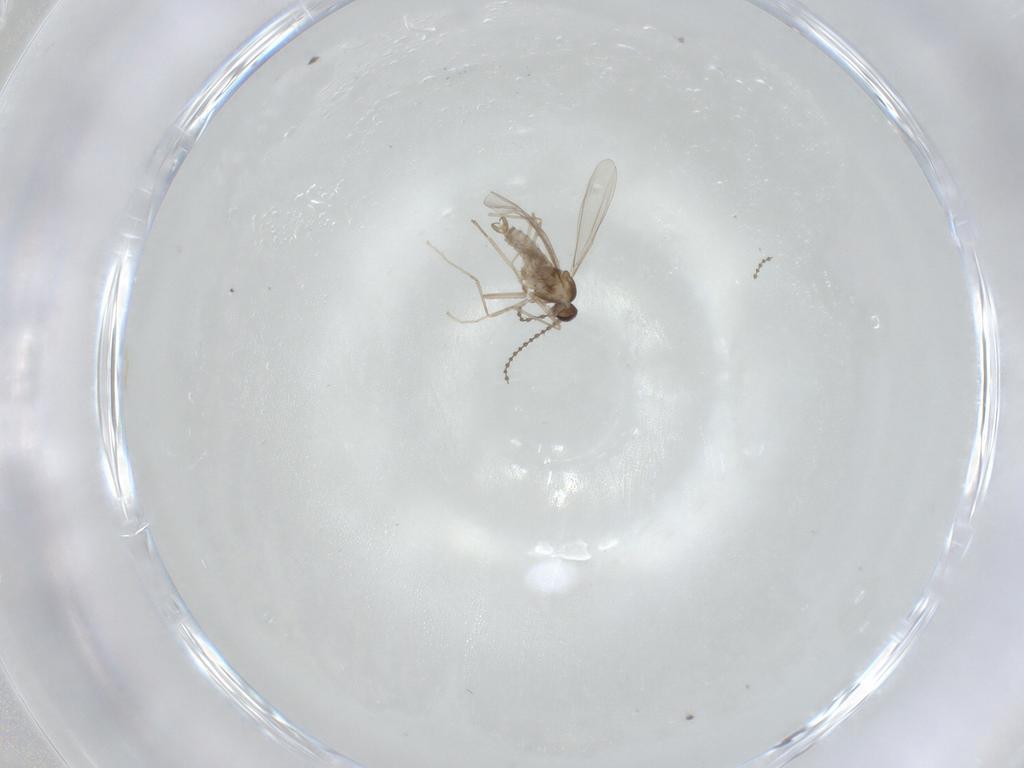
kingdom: Animalia
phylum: Arthropoda
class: Insecta
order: Diptera
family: Cecidomyiidae
